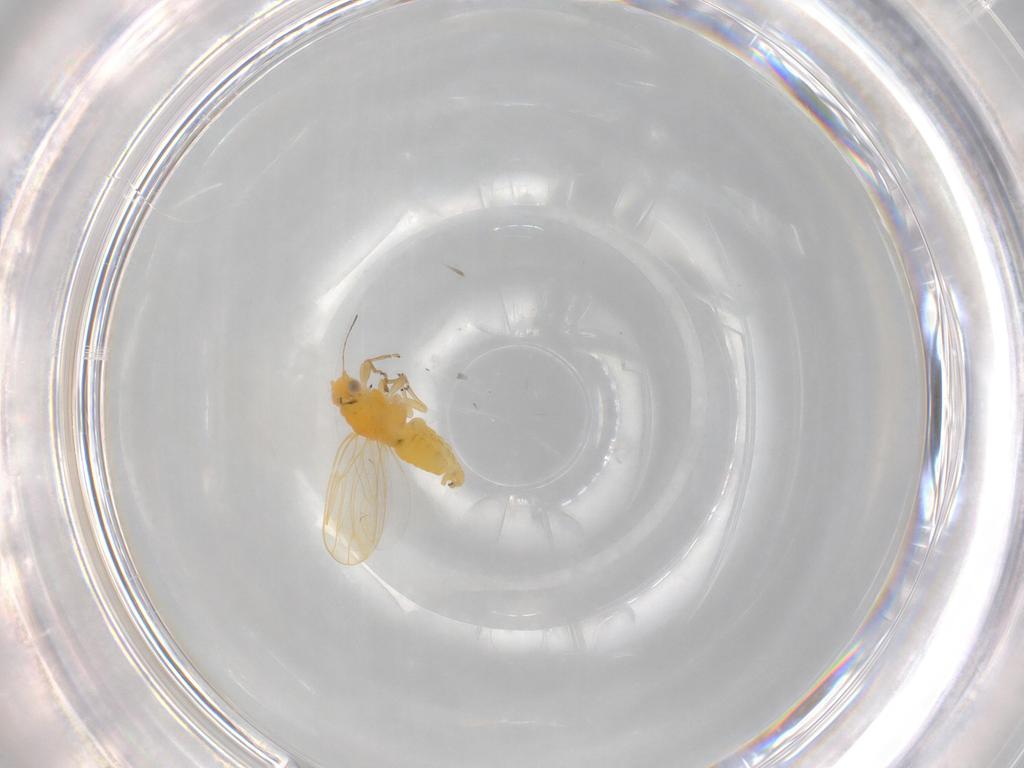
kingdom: Animalia
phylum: Arthropoda
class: Insecta
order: Hemiptera
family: Psyllidae
